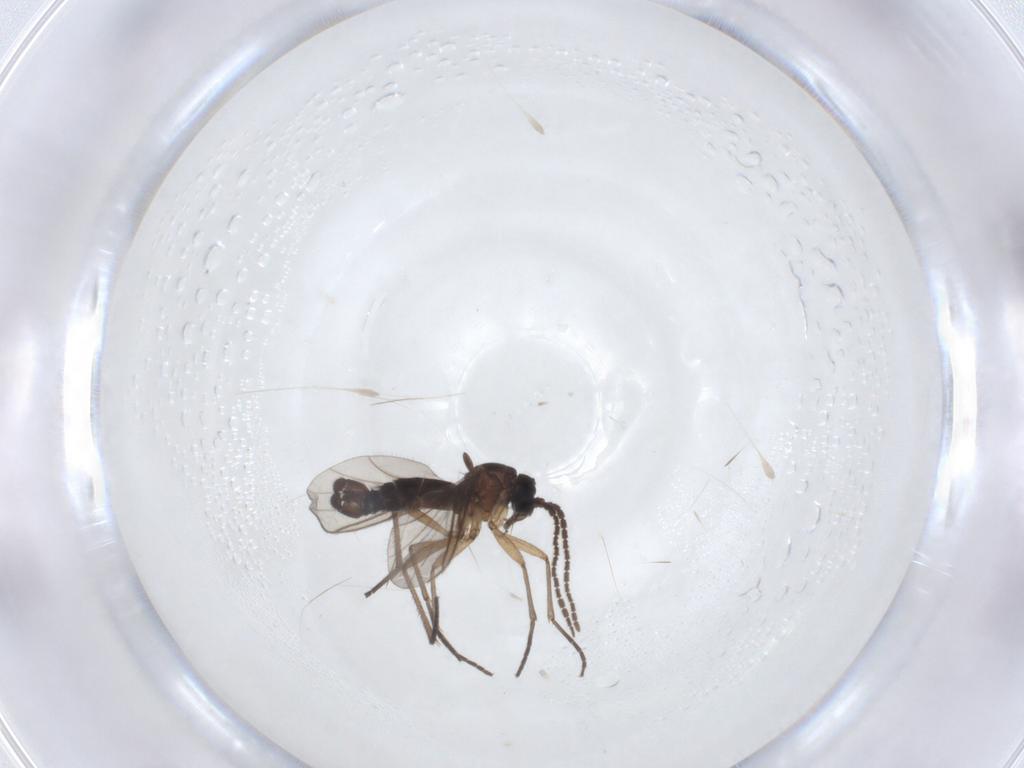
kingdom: Animalia
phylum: Arthropoda
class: Insecta
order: Diptera
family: Sciaridae
